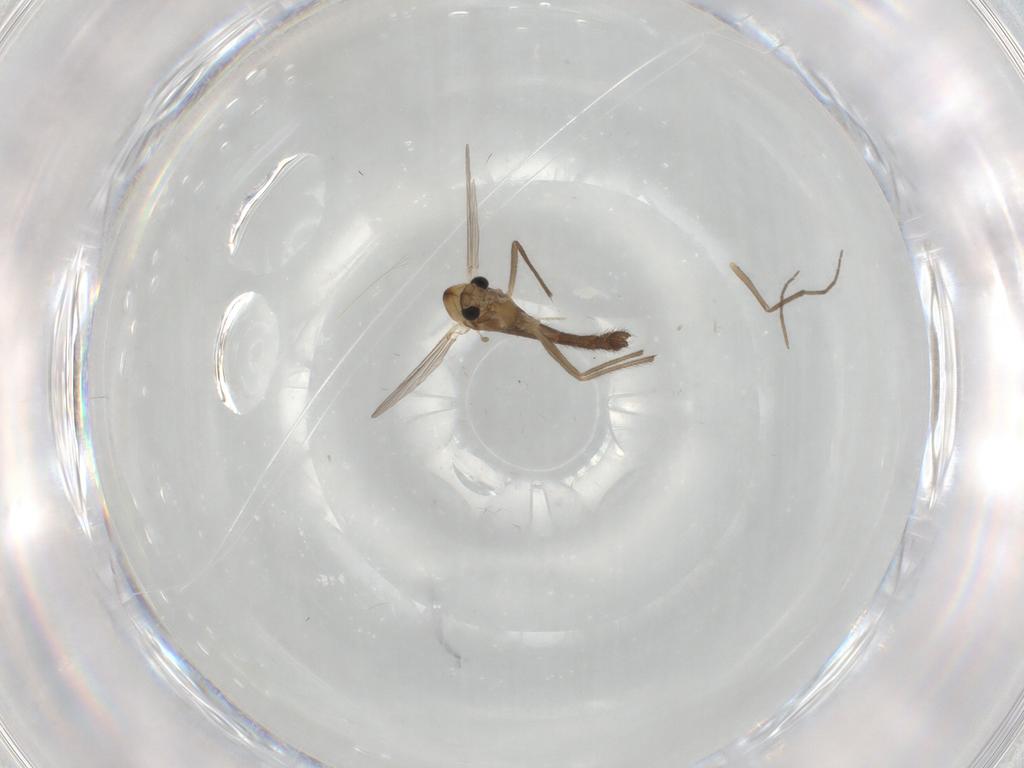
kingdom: Animalia
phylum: Arthropoda
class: Insecta
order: Diptera
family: Chironomidae
